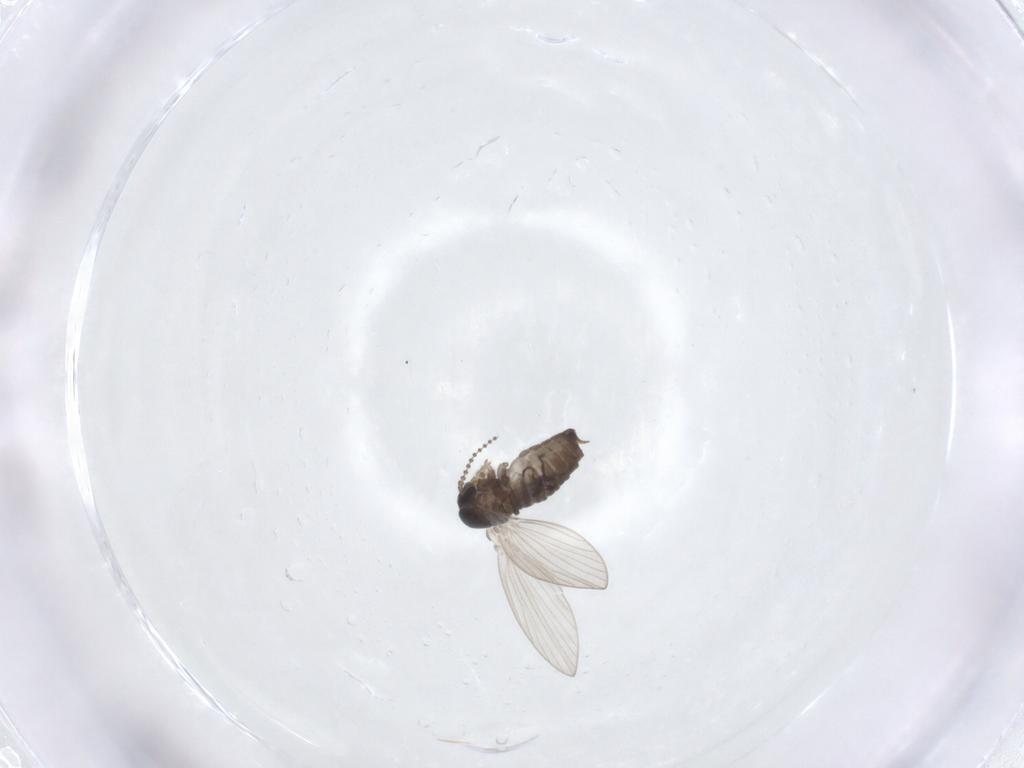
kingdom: Animalia
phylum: Arthropoda
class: Insecta
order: Diptera
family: Psychodidae
